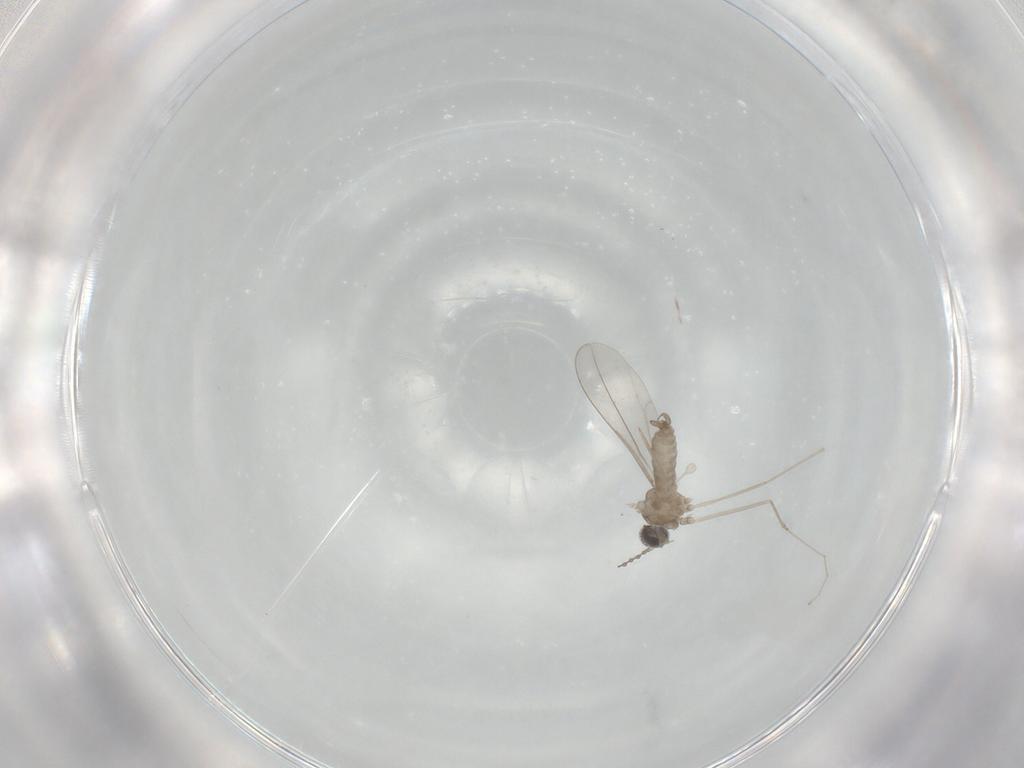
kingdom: Animalia
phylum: Arthropoda
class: Insecta
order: Diptera
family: Cecidomyiidae
